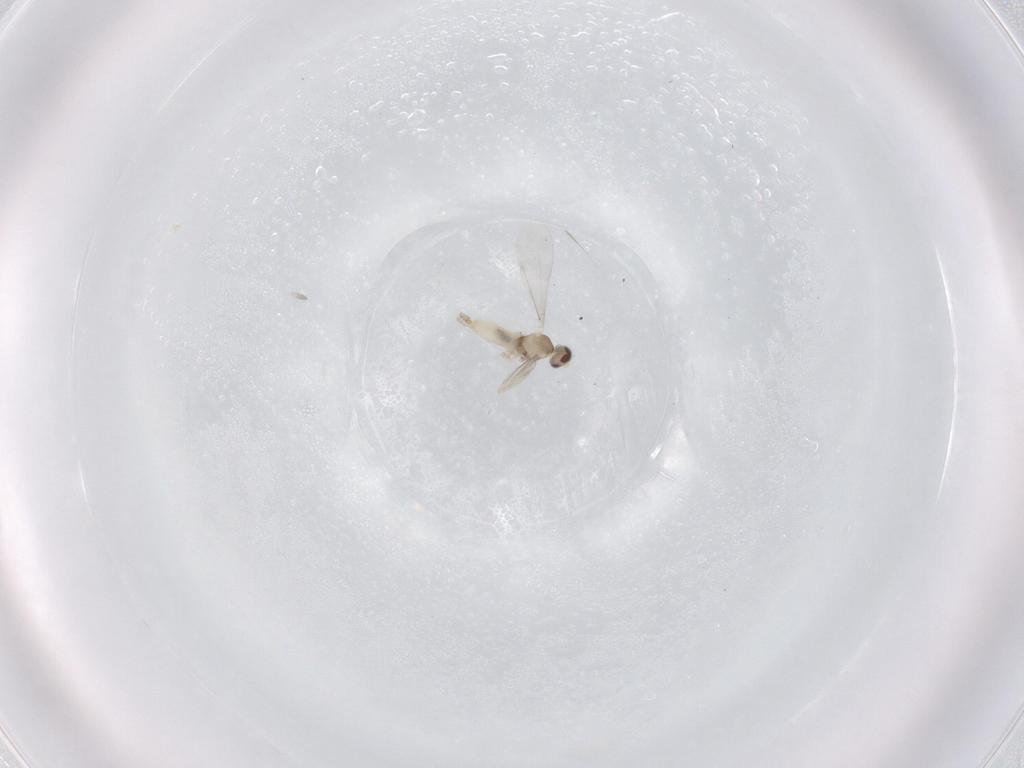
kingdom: Animalia
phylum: Arthropoda
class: Insecta
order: Diptera
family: Cecidomyiidae
